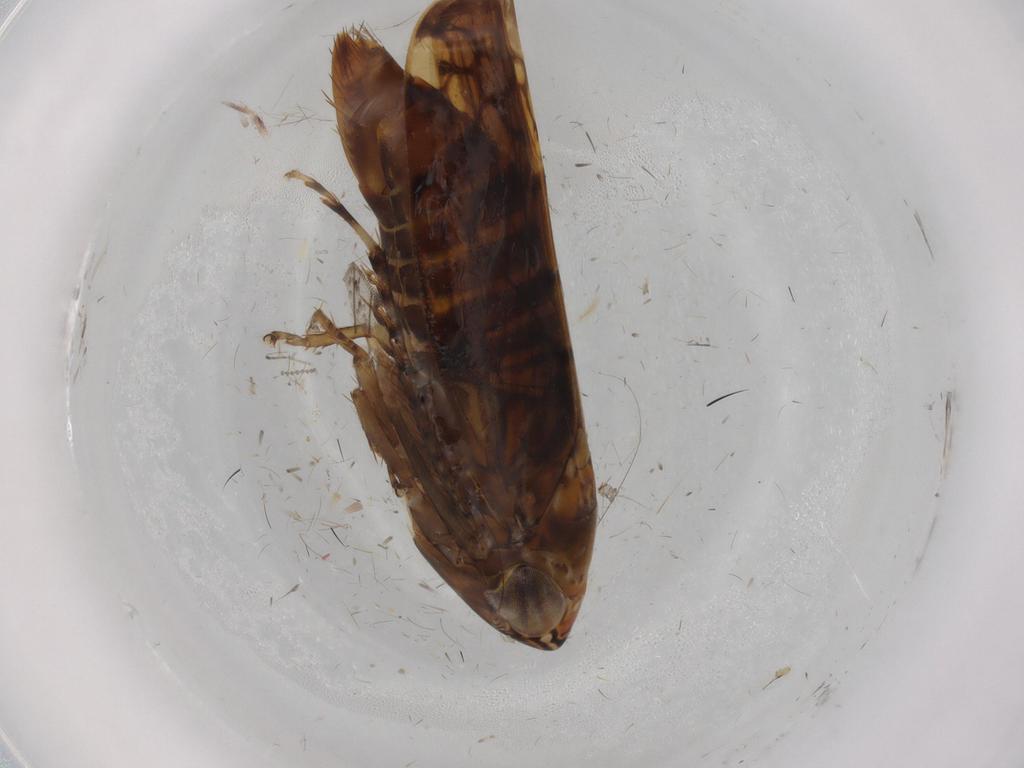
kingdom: Animalia
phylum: Arthropoda
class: Insecta
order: Hemiptera
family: Cicadellidae
